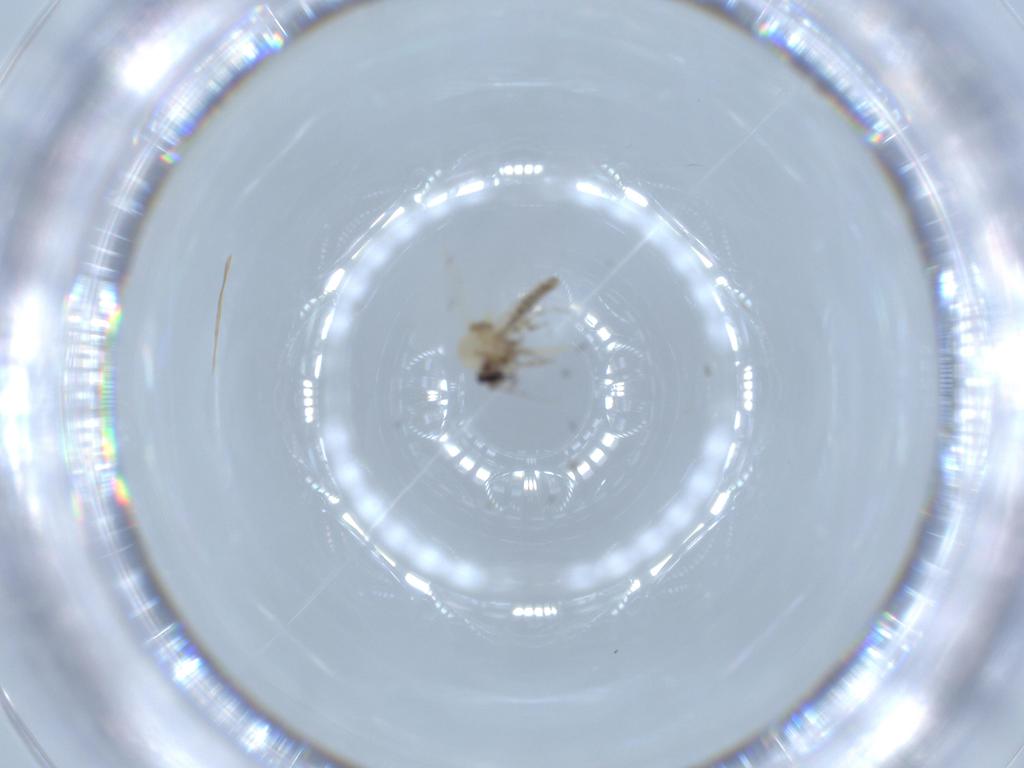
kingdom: Animalia
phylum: Arthropoda
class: Insecta
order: Diptera
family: Ceratopogonidae
